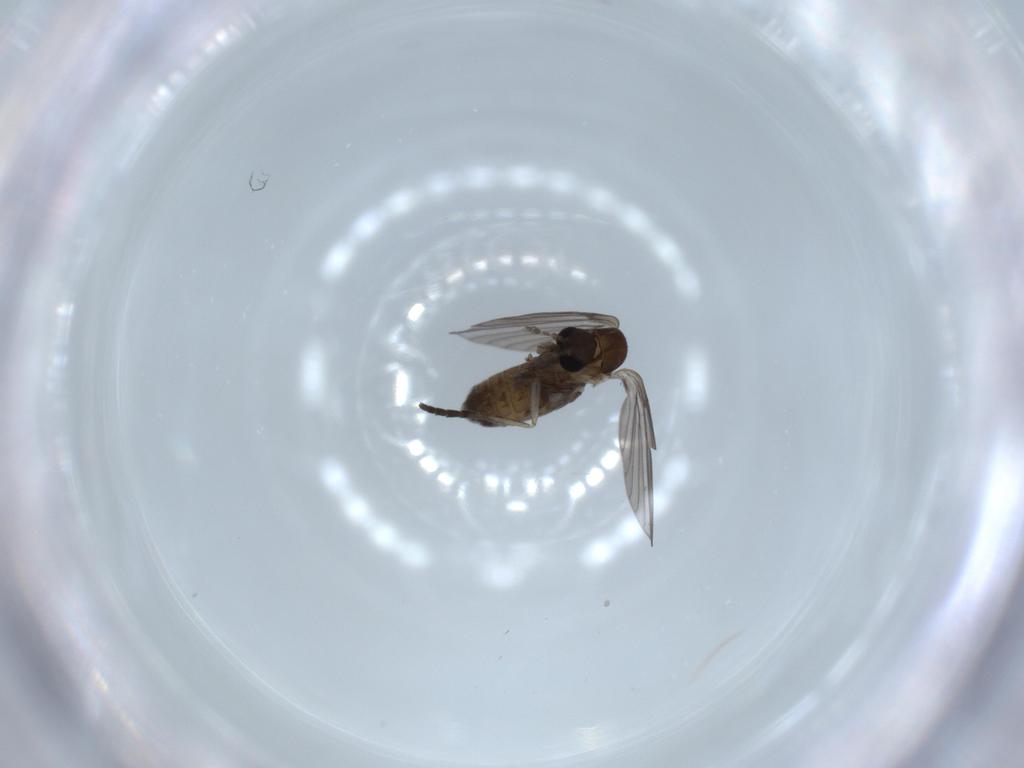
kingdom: Animalia
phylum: Arthropoda
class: Insecta
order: Diptera
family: Psychodidae
